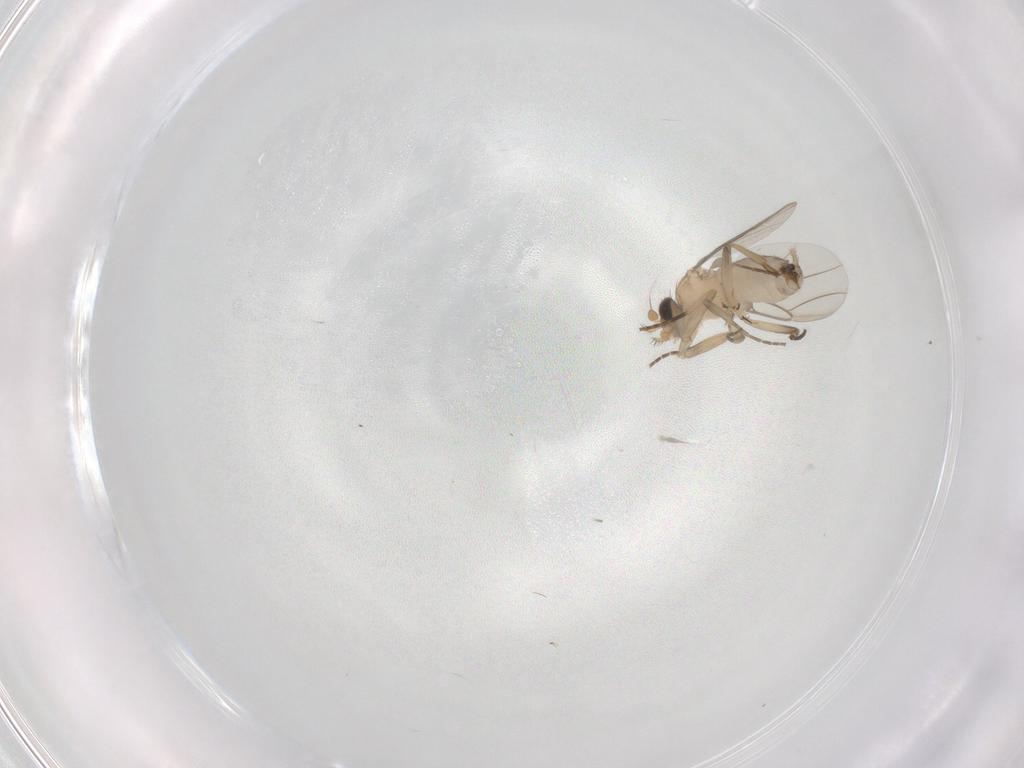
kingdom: Animalia
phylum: Arthropoda
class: Insecta
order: Diptera
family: Phoridae
